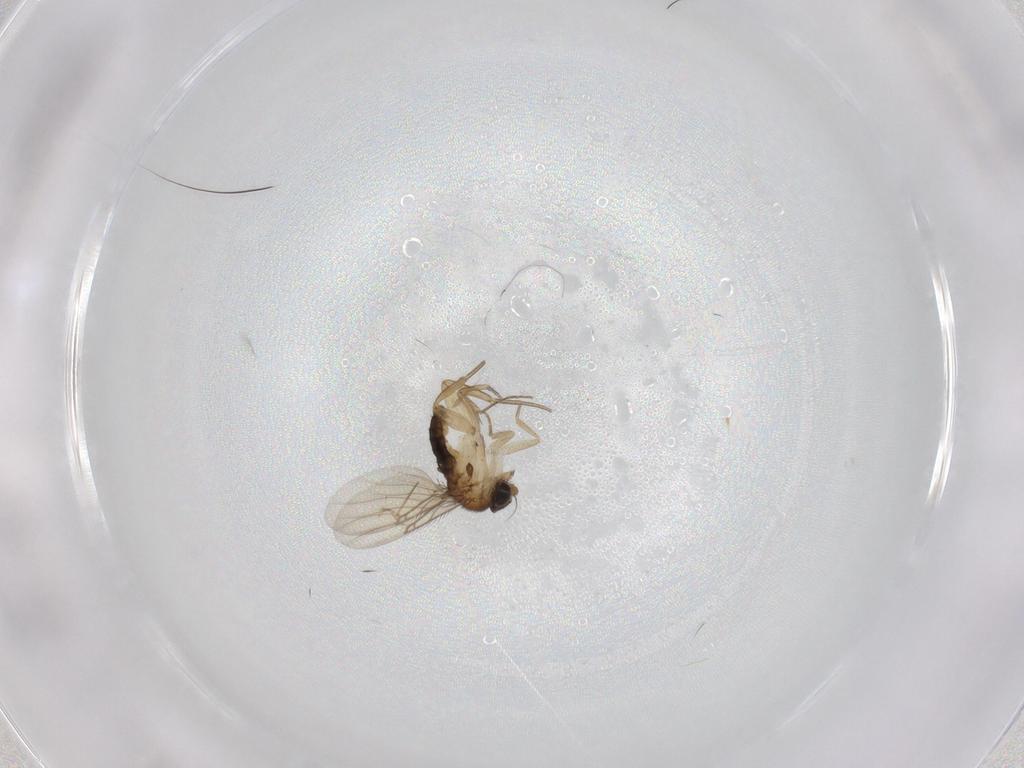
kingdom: Animalia
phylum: Arthropoda
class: Insecta
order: Diptera
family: Phoridae
